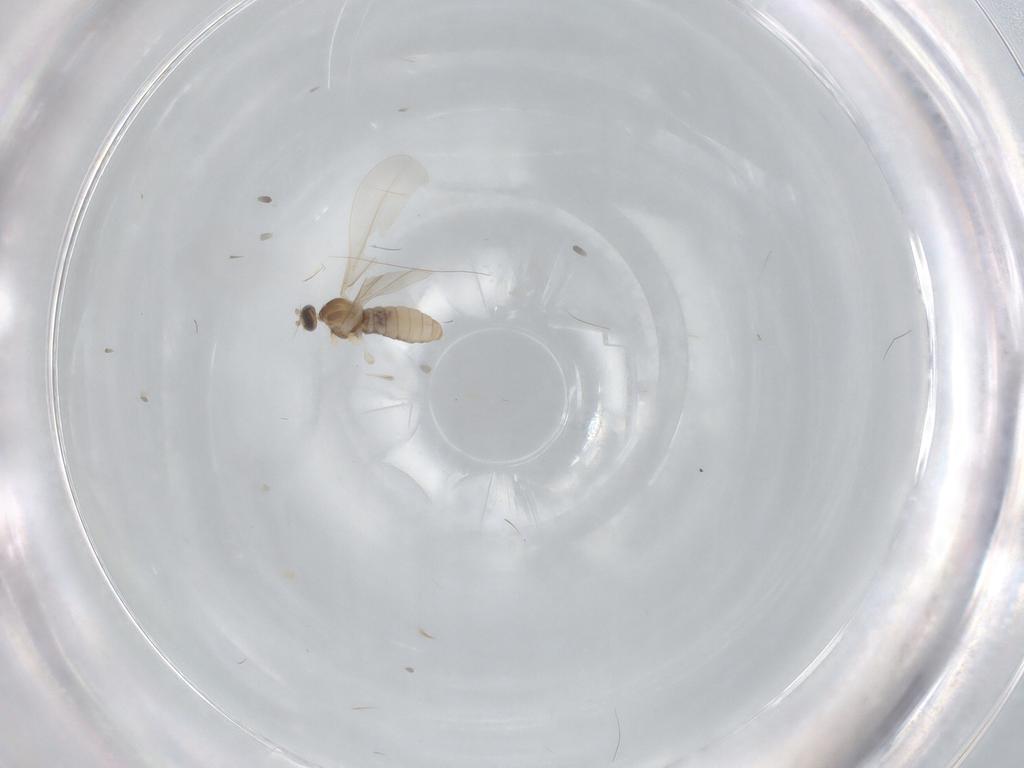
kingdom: Animalia
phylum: Arthropoda
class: Insecta
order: Diptera
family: Cecidomyiidae
